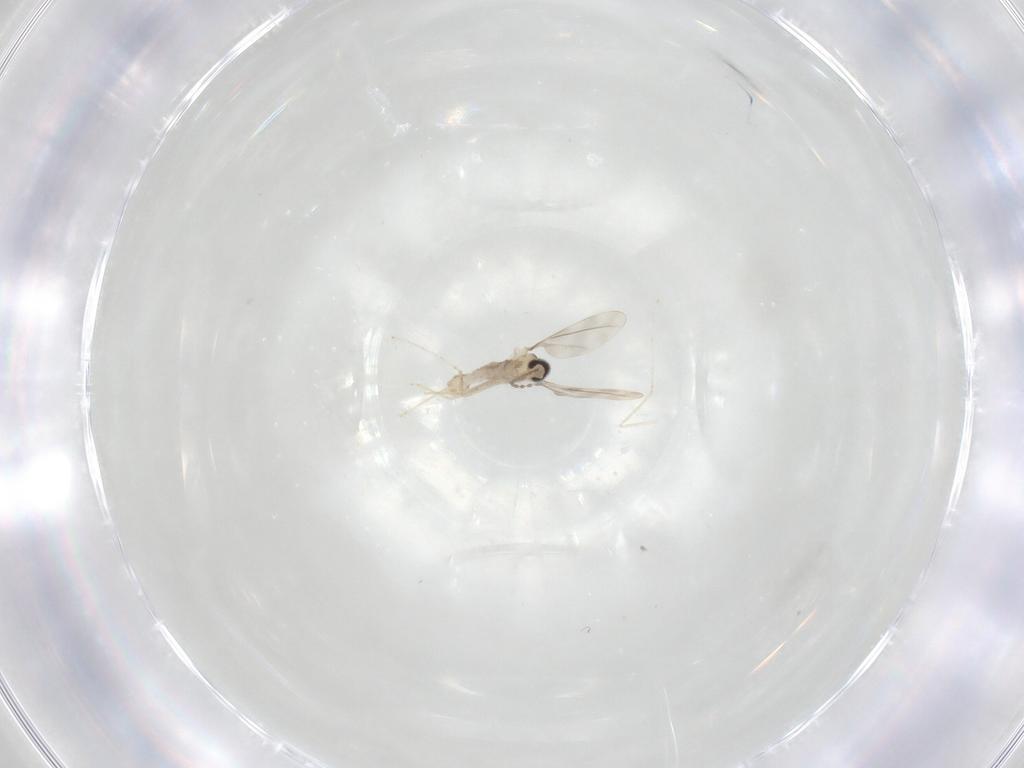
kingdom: Animalia
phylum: Arthropoda
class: Insecta
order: Diptera
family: Cecidomyiidae
